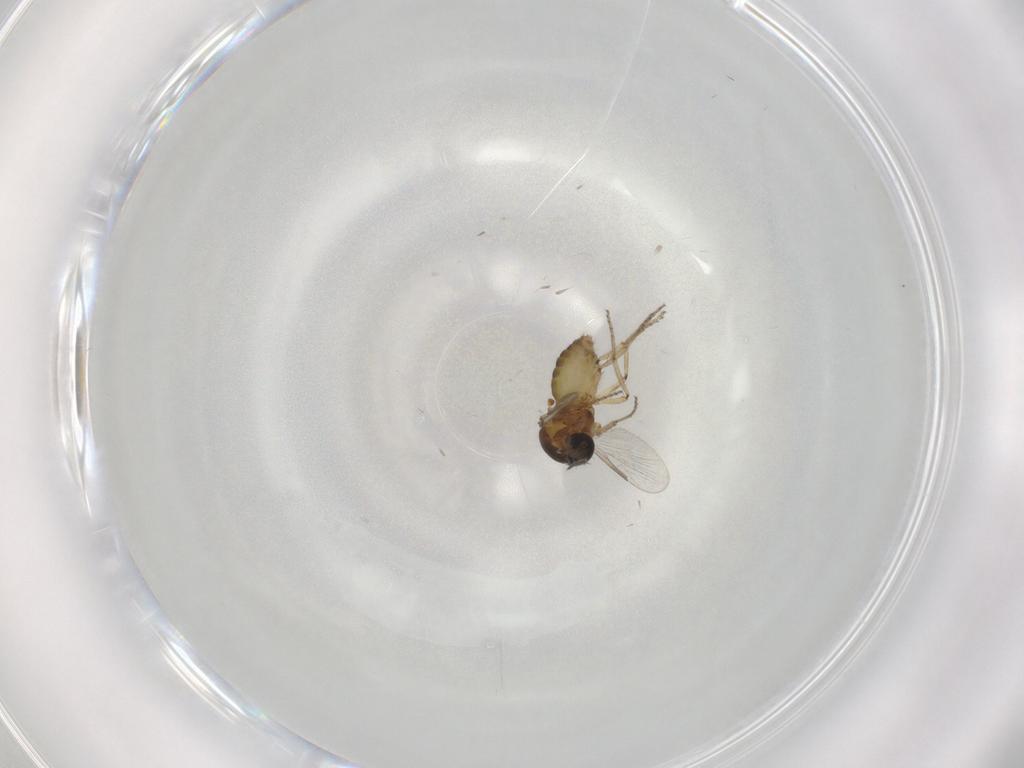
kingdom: Animalia
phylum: Arthropoda
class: Insecta
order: Diptera
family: Ceratopogonidae
